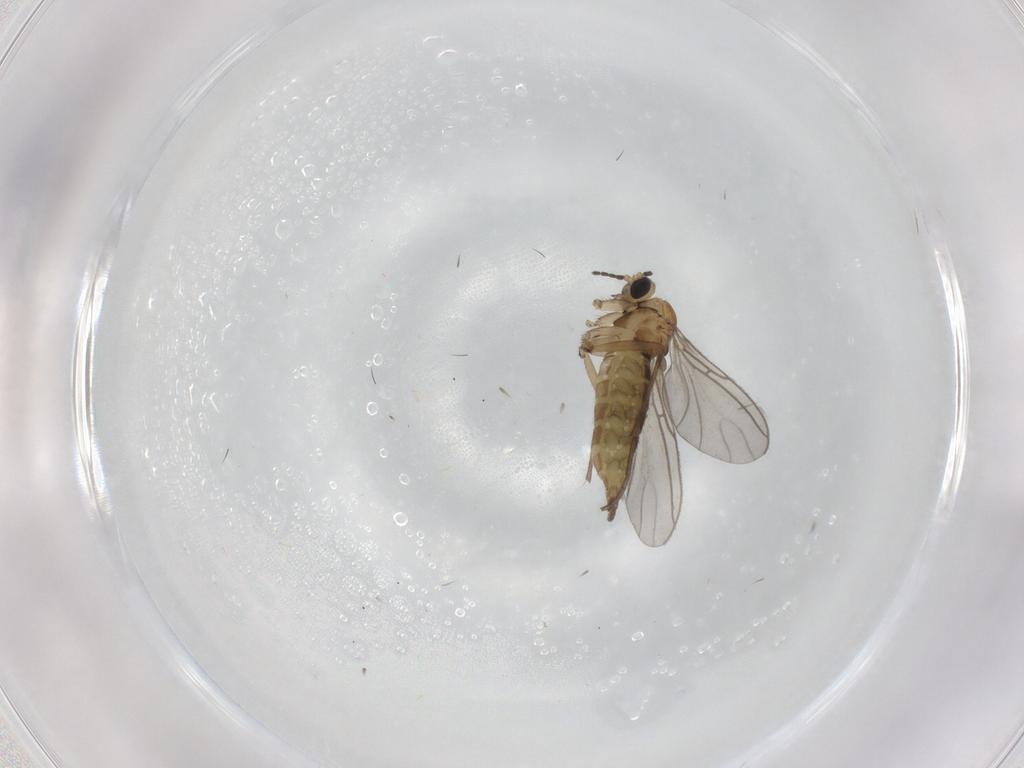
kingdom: Animalia
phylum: Arthropoda
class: Insecta
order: Diptera
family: Sciaridae
